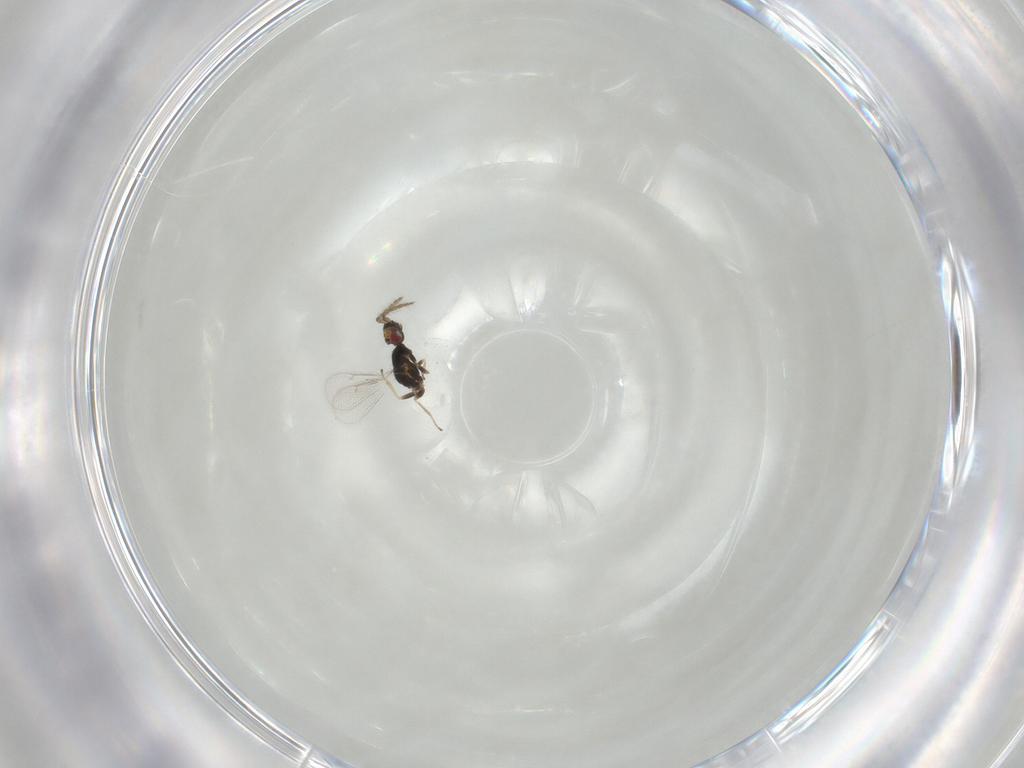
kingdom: Animalia
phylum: Arthropoda
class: Insecta
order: Hymenoptera
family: Eulophidae
